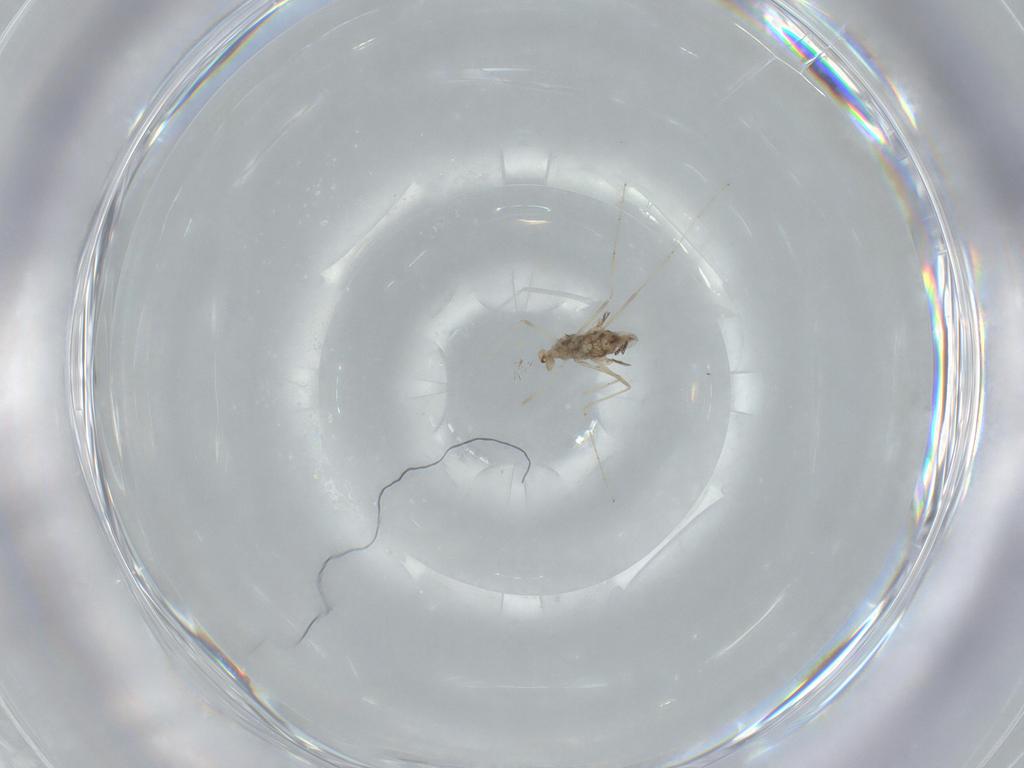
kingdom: Animalia
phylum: Arthropoda
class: Insecta
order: Diptera
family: Cecidomyiidae
